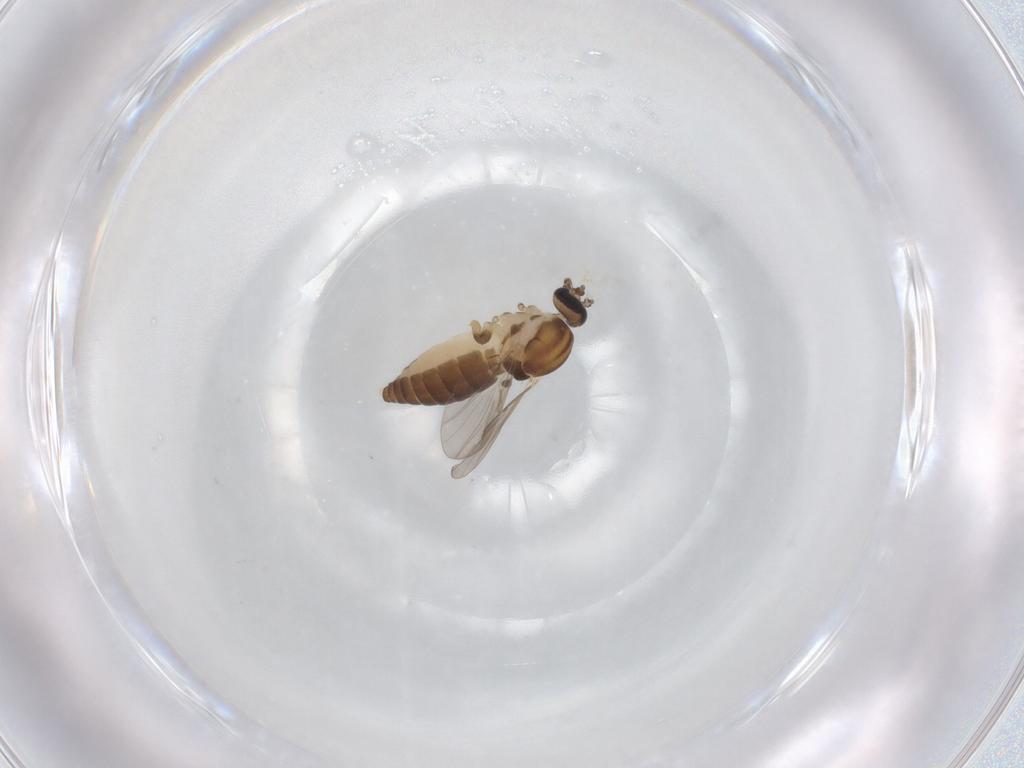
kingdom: Animalia
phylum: Arthropoda
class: Insecta
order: Diptera
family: Ceratopogonidae
